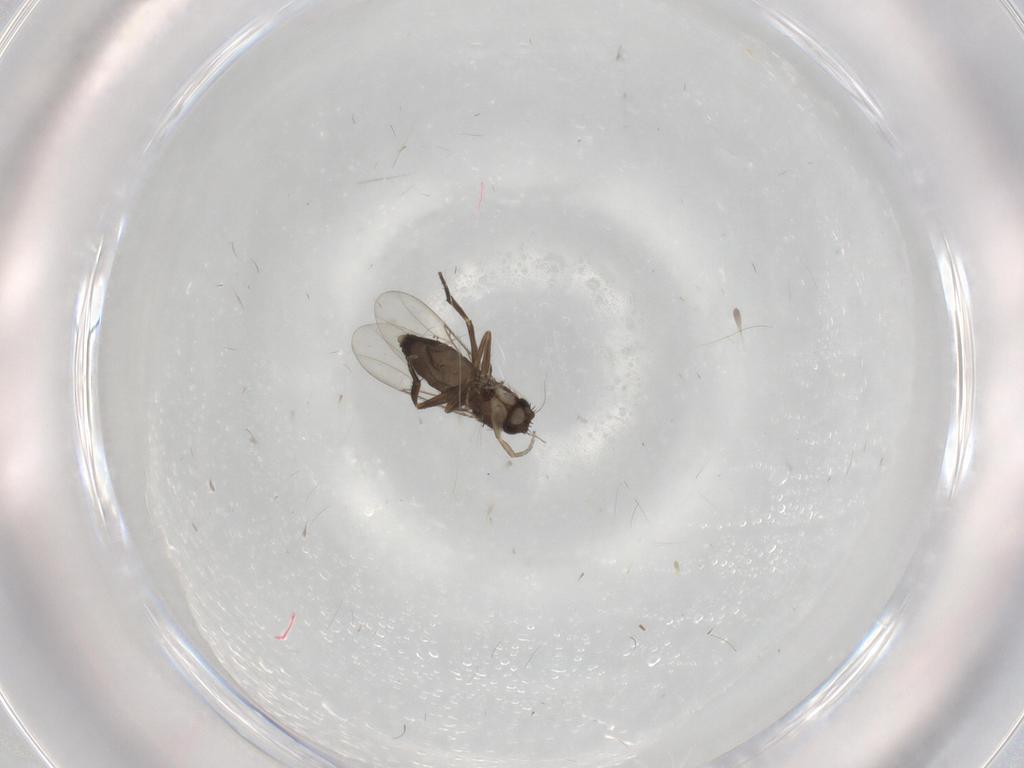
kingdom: Animalia
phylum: Arthropoda
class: Insecta
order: Diptera
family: Phoridae
